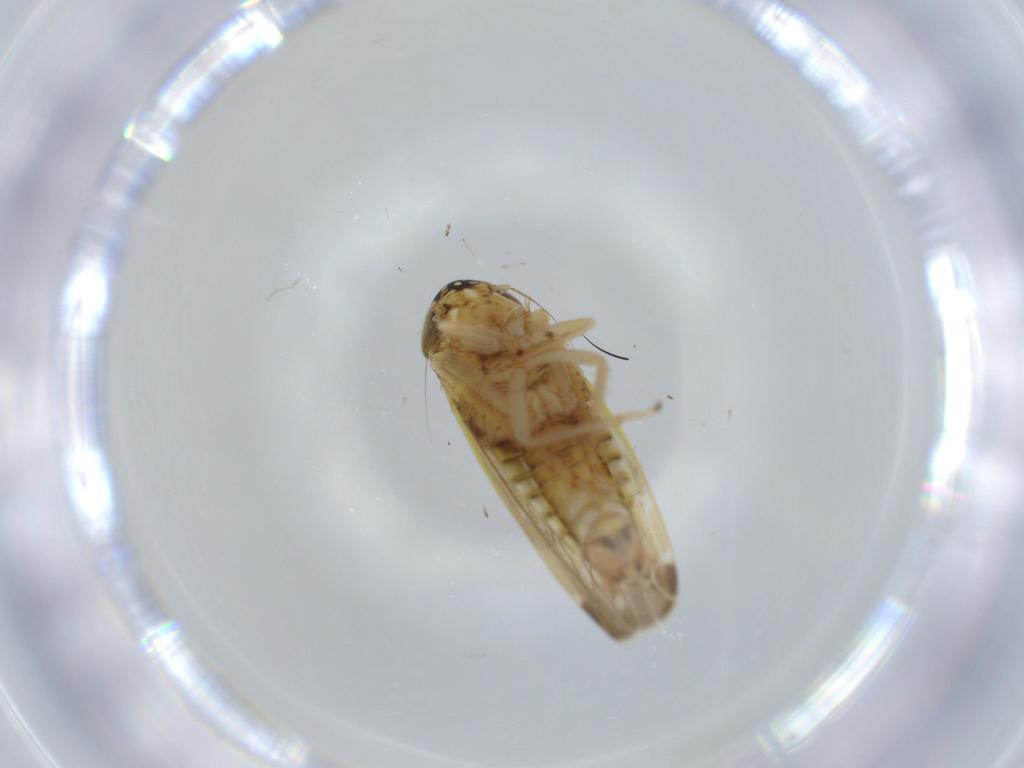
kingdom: Animalia
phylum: Arthropoda
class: Insecta
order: Hemiptera
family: Cicadellidae
